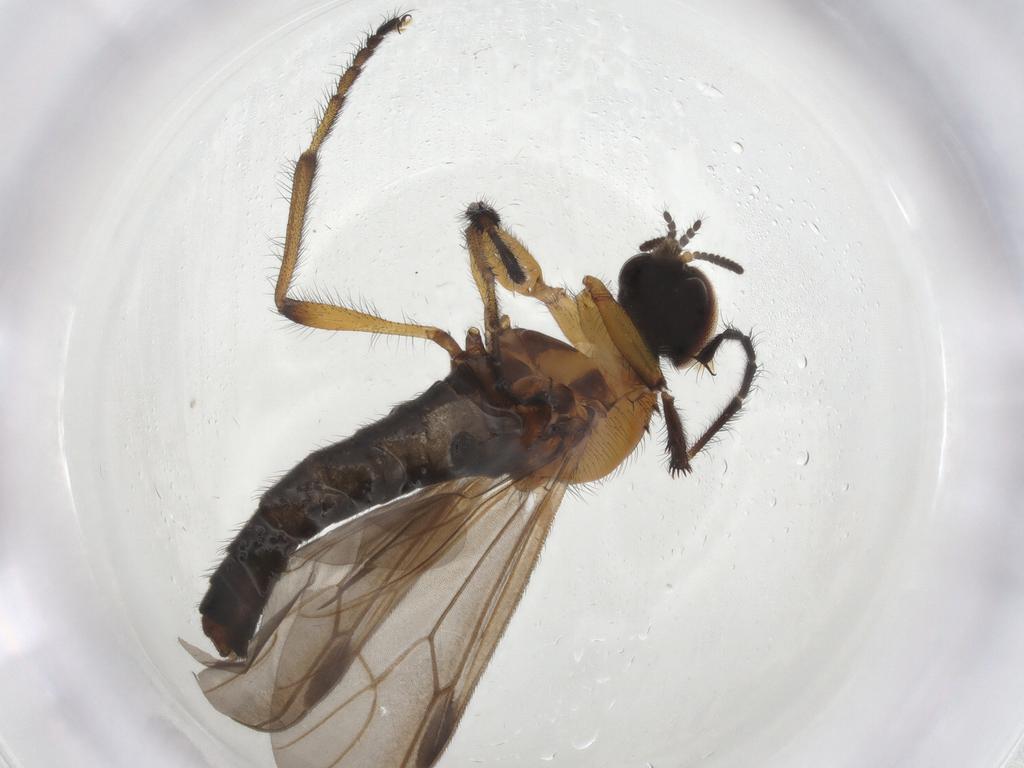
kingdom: Animalia
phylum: Arthropoda
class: Insecta
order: Diptera
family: Bibionidae
